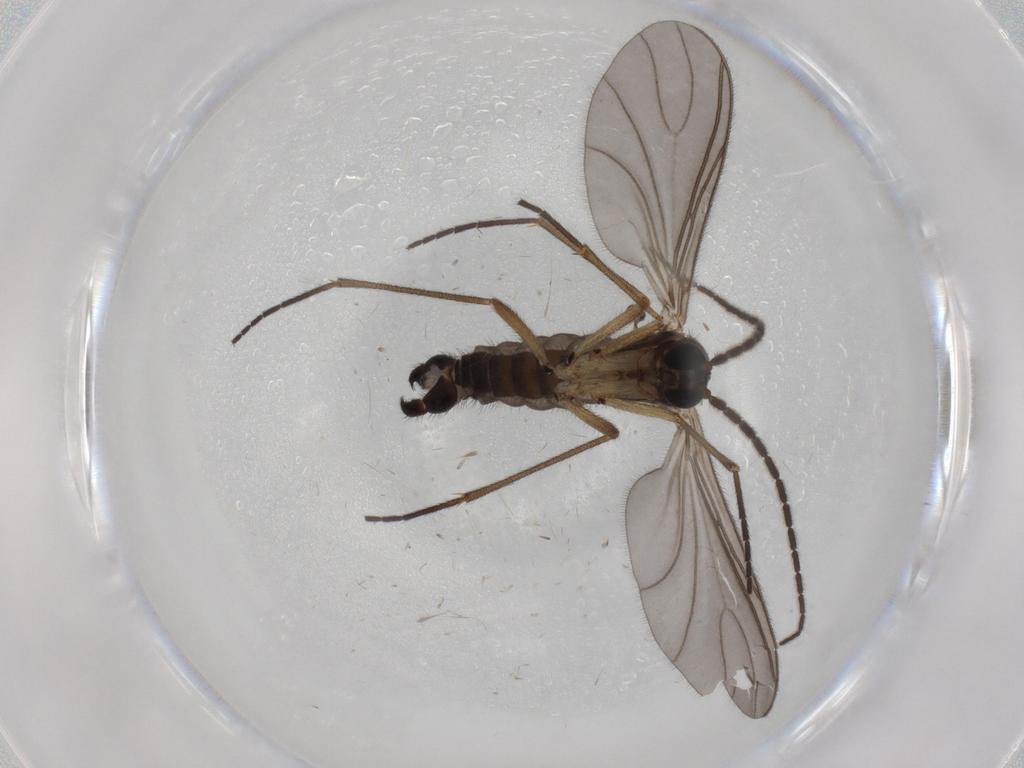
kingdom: Animalia
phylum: Arthropoda
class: Insecta
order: Diptera
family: Sciaridae
